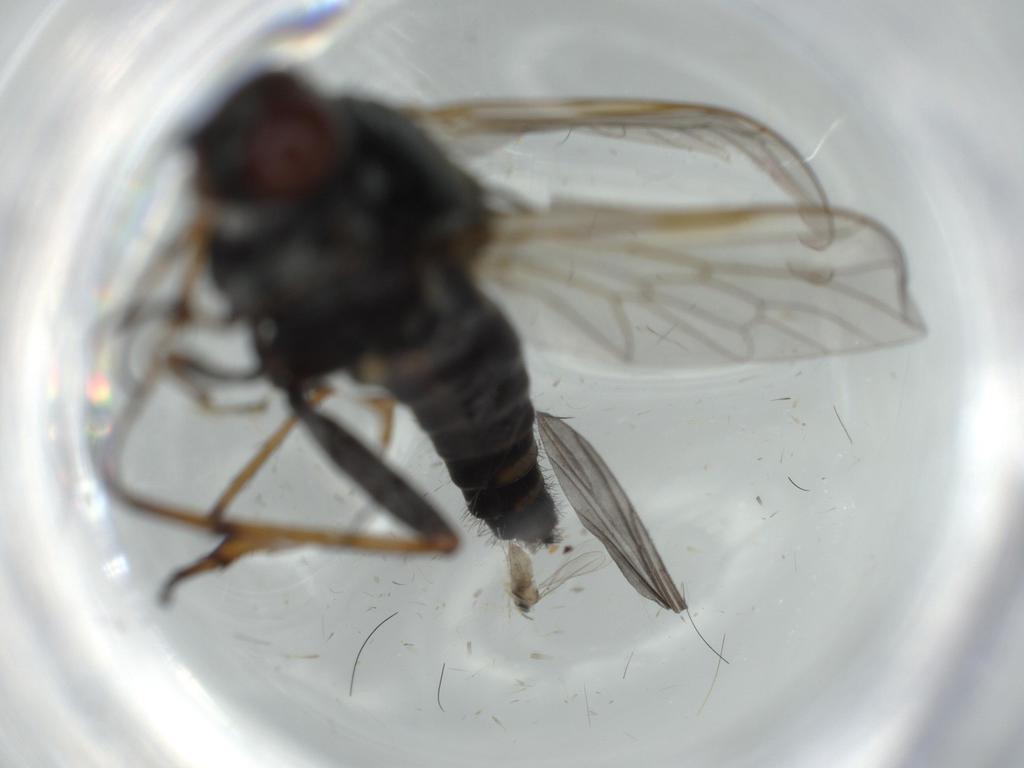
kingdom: Animalia
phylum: Arthropoda
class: Insecta
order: Diptera
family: Therevidae
